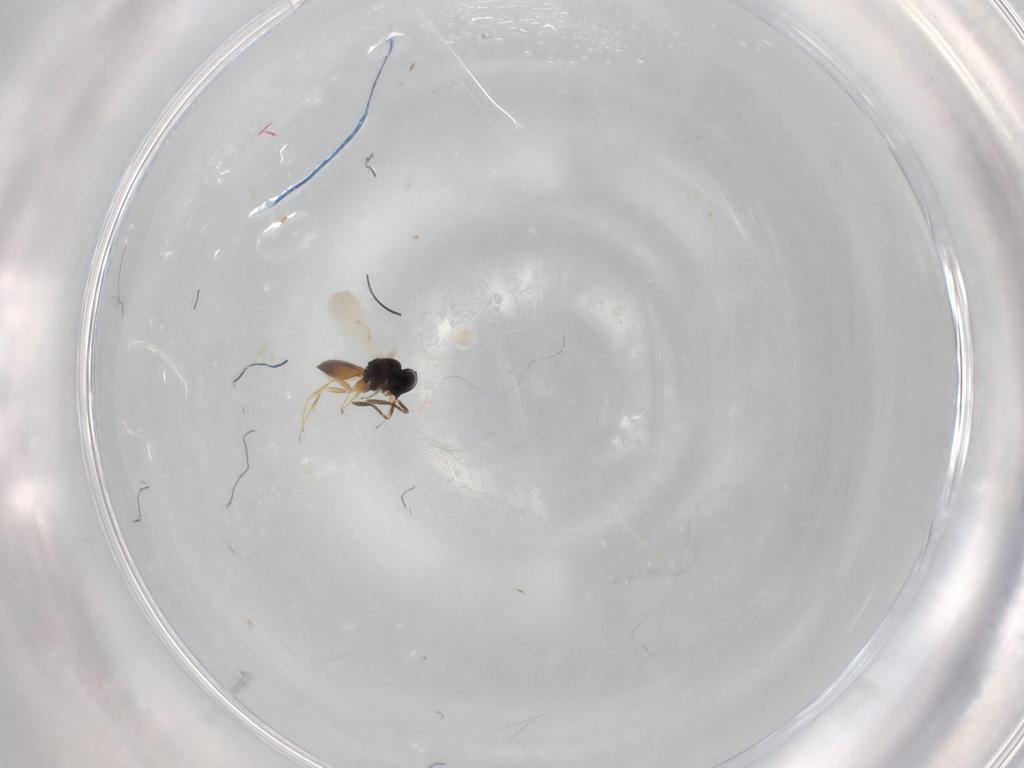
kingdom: Animalia
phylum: Arthropoda
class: Insecta
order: Hymenoptera
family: Scelionidae
